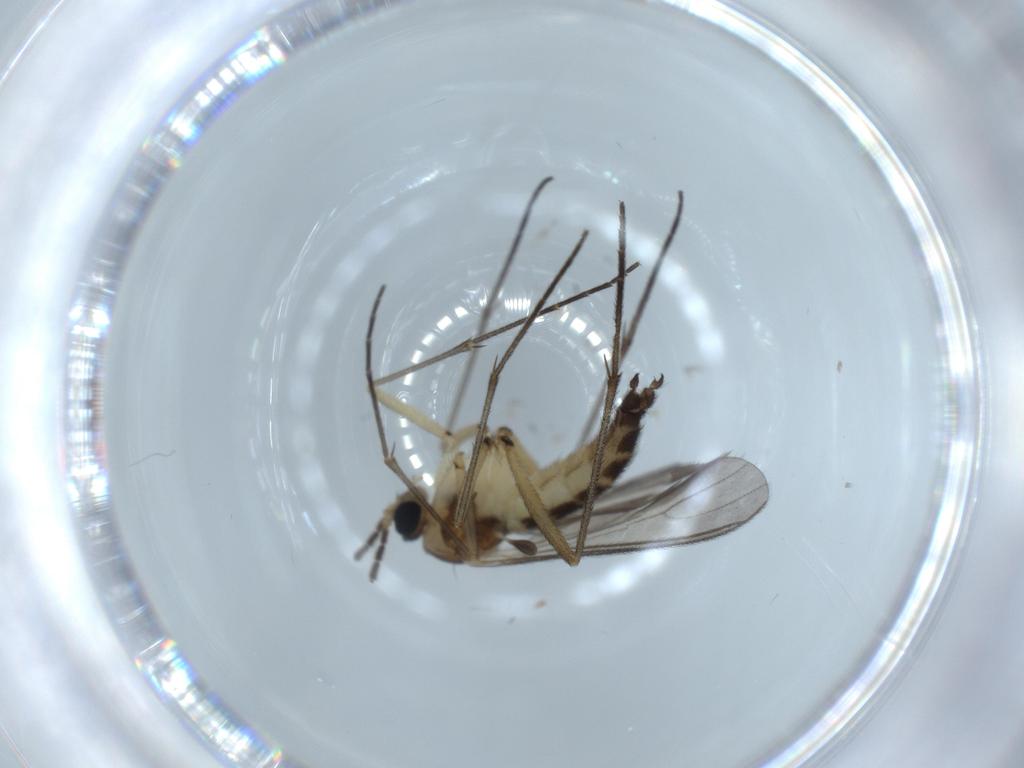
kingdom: Animalia
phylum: Arthropoda
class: Insecta
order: Diptera
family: Sciaridae
